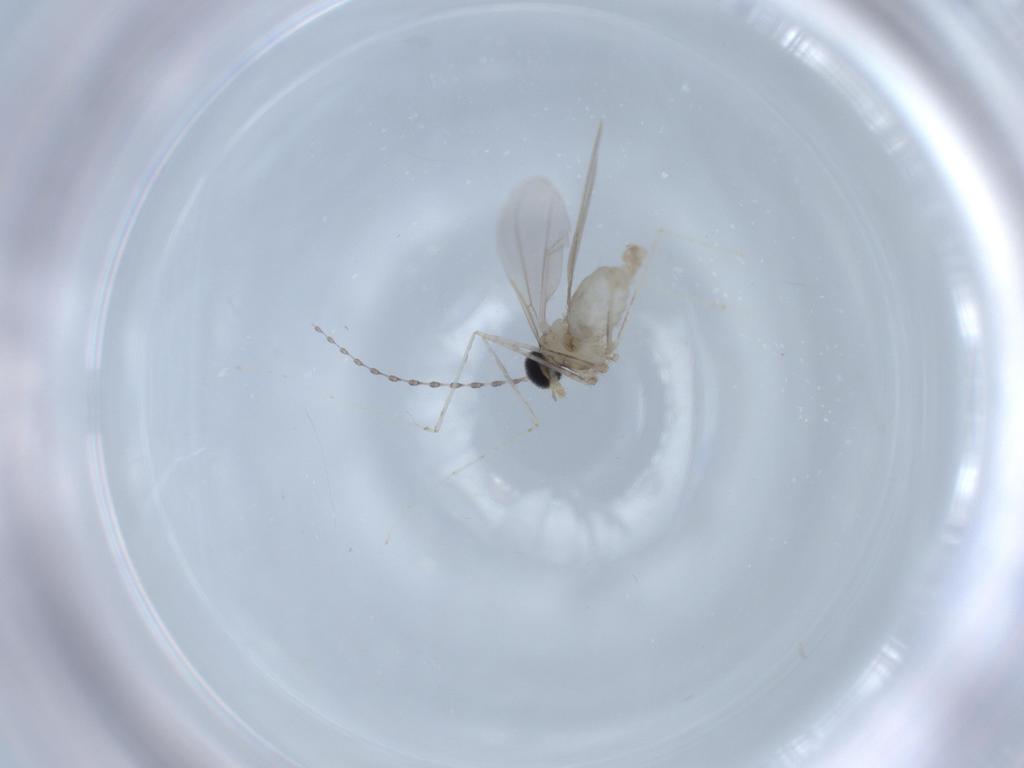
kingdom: Animalia
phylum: Arthropoda
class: Insecta
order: Diptera
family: Cecidomyiidae
